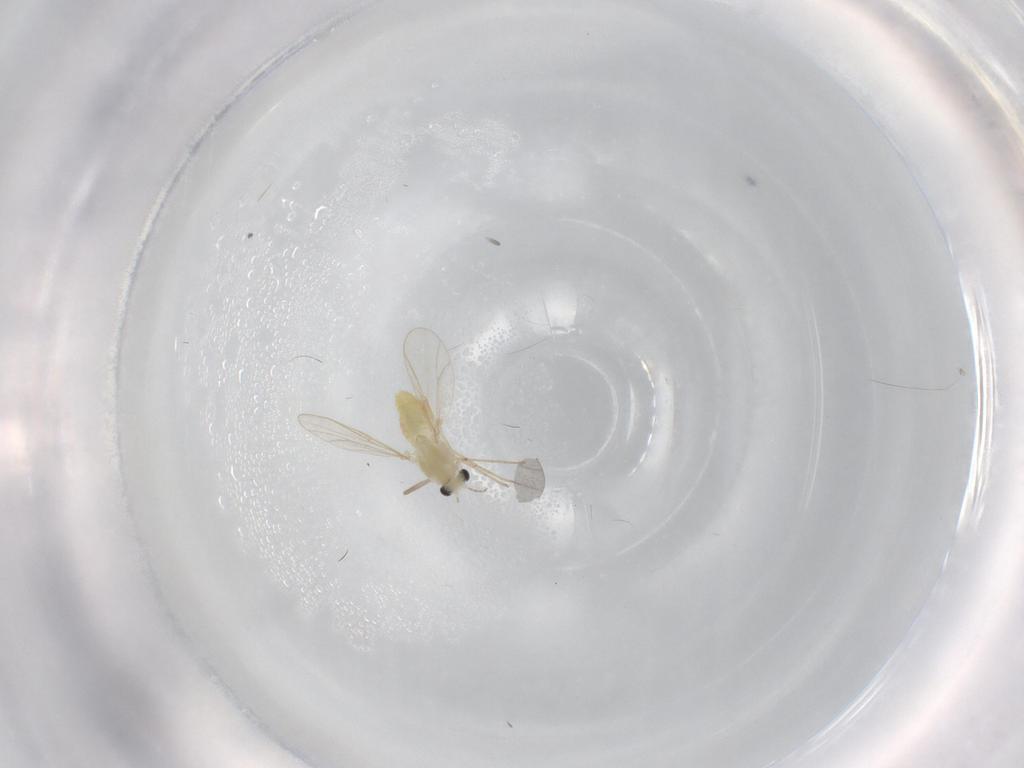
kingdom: Animalia
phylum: Arthropoda
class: Insecta
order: Diptera
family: Chironomidae
